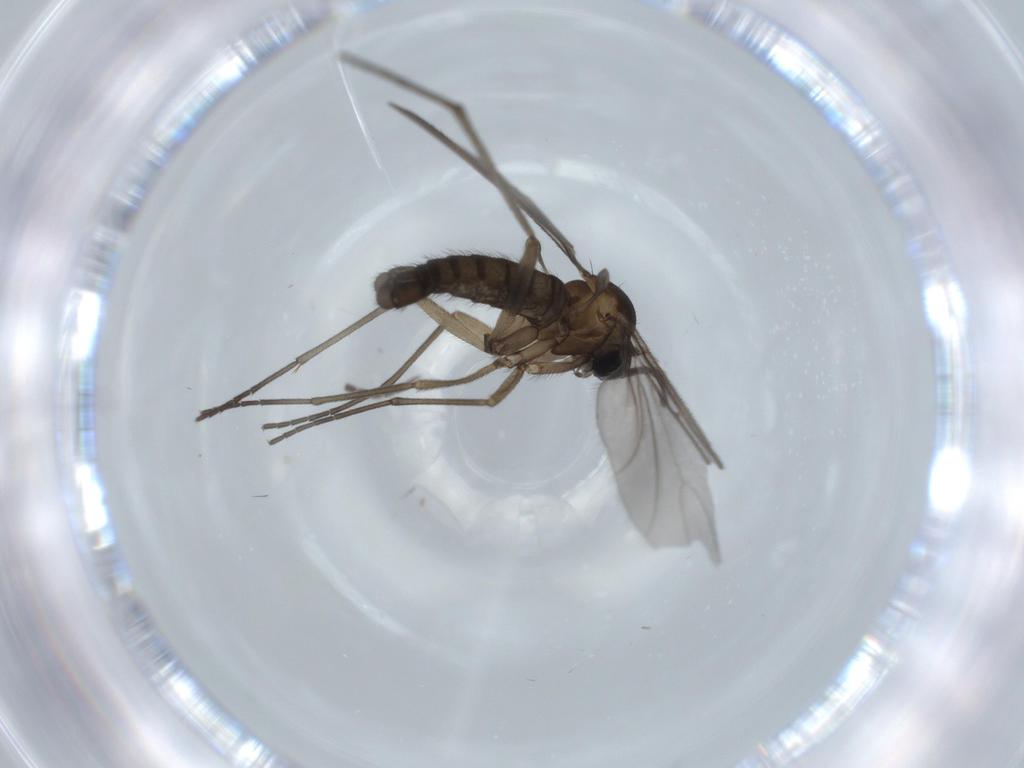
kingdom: Animalia
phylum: Arthropoda
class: Insecta
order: Diptera
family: Sciaridae
